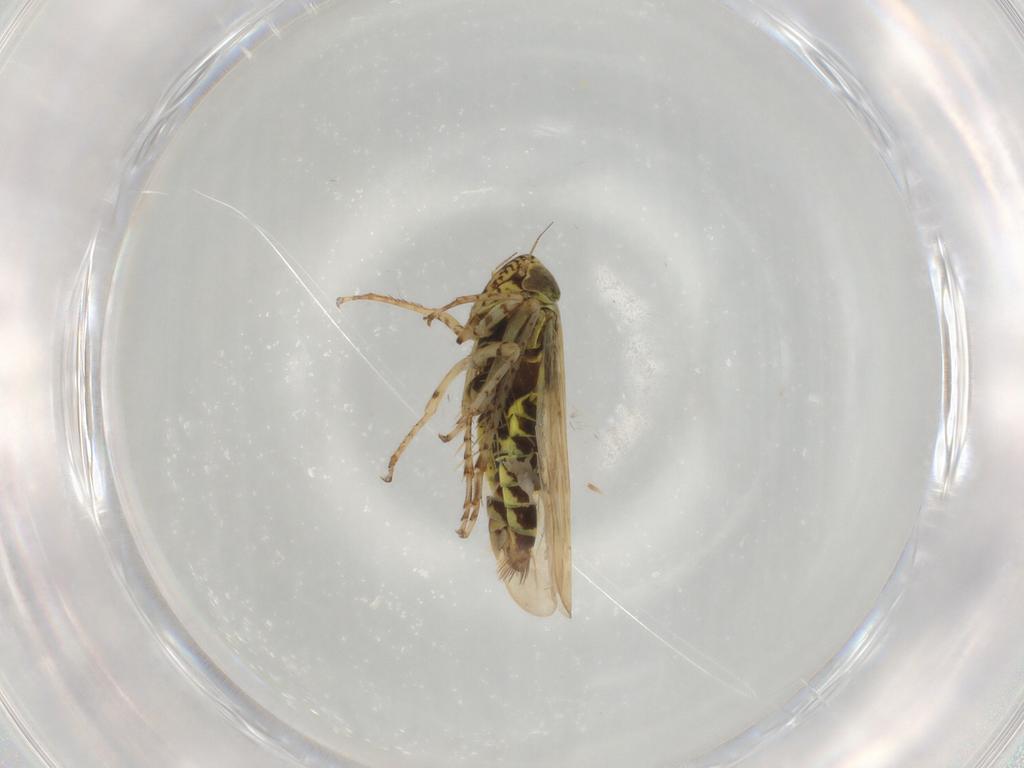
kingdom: Animalia
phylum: Arthropoda
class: Insecta
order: Hemiptera
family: Cicadellidae
